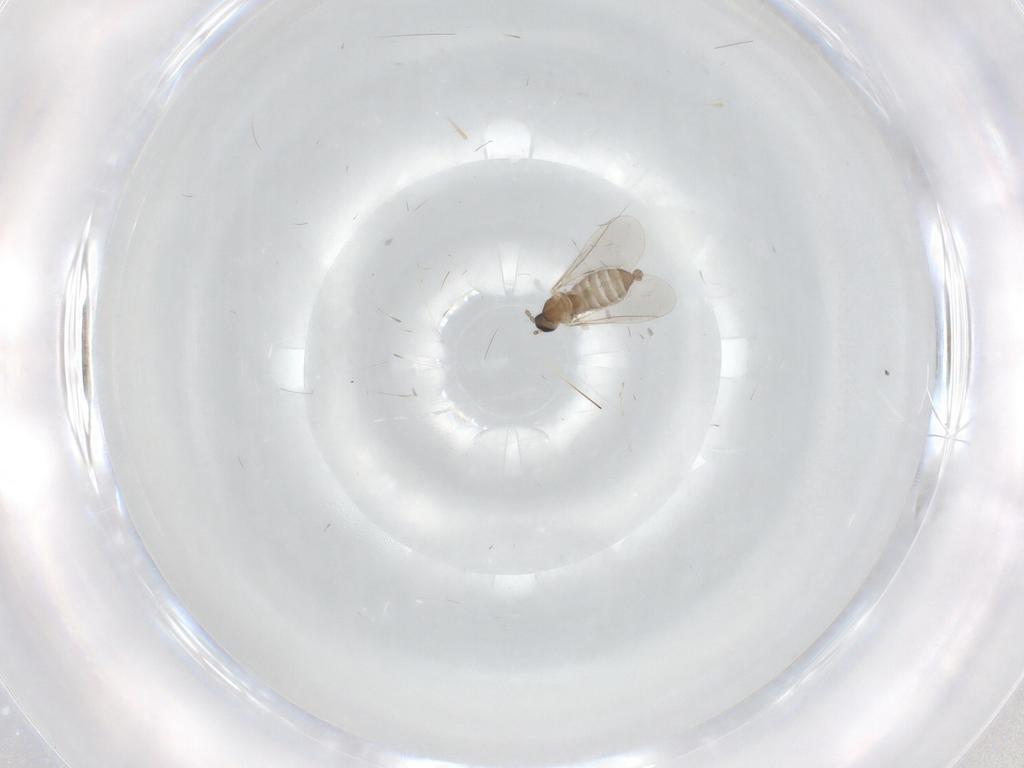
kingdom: Animalia
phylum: Arthropoda
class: Insecta
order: Diptera
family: Cecidomyiidae
